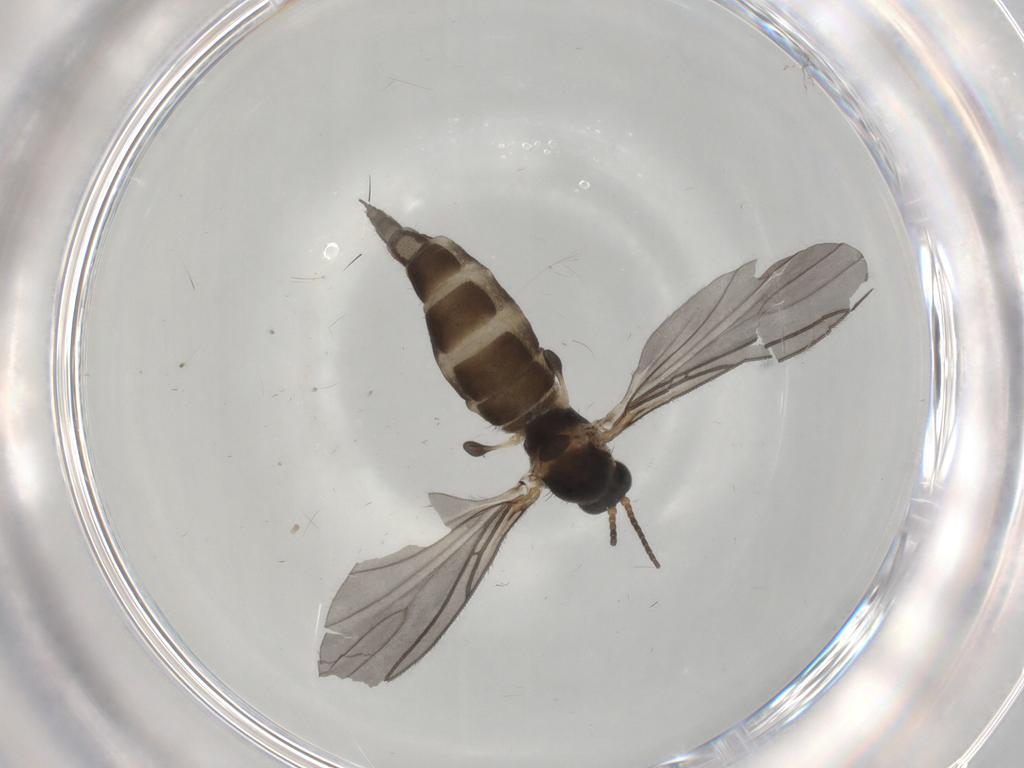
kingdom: Animalia
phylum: Arthropoda
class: Insecta
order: Diptera
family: Sciaridae
